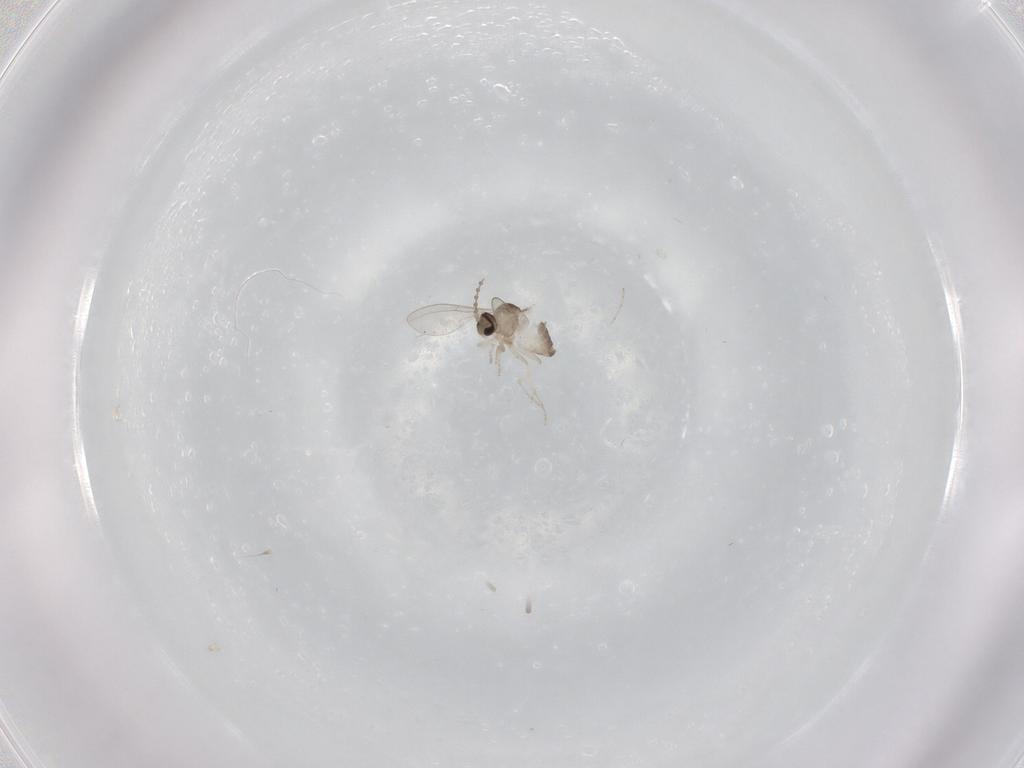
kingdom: Animalia
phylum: Arthropoda
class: Insecta
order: Diptera
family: Cecidomyiidae
